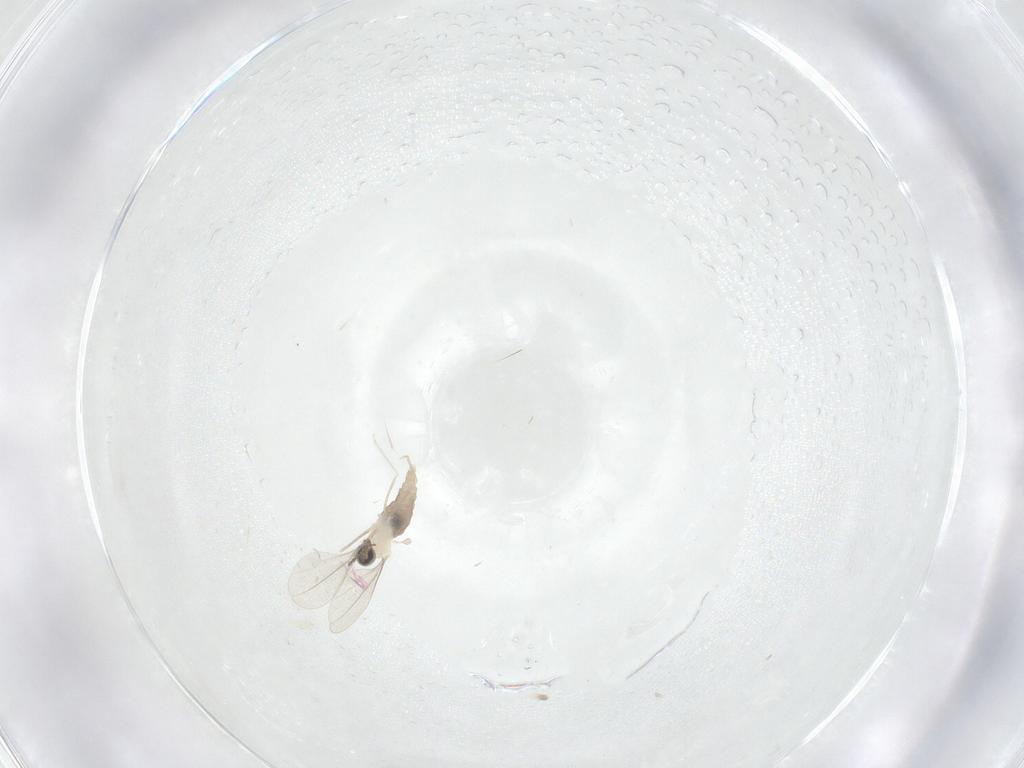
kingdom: Animalia
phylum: Arthropoda
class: Insecta
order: Diptera
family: Cecidomyiidae
